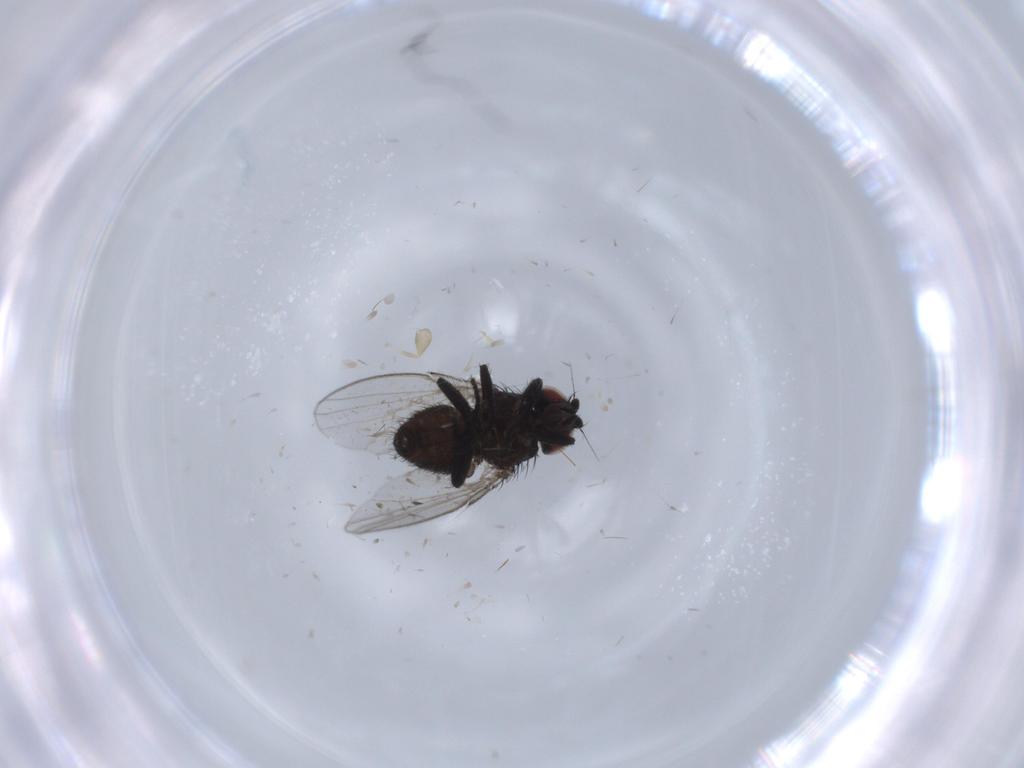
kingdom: Animalia
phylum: Arthropoda
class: Insecta
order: Diptera
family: Milichiidae
